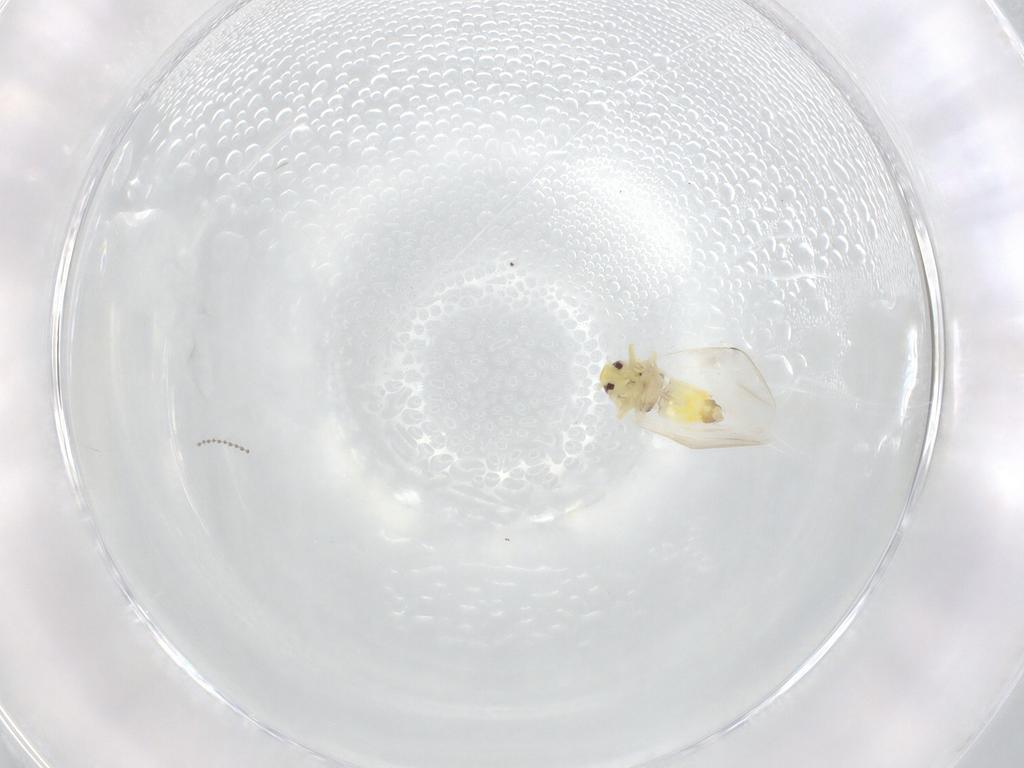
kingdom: Animalia
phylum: Arthropoda
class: Insecta
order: Hemiptera
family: Aleyrodidae
